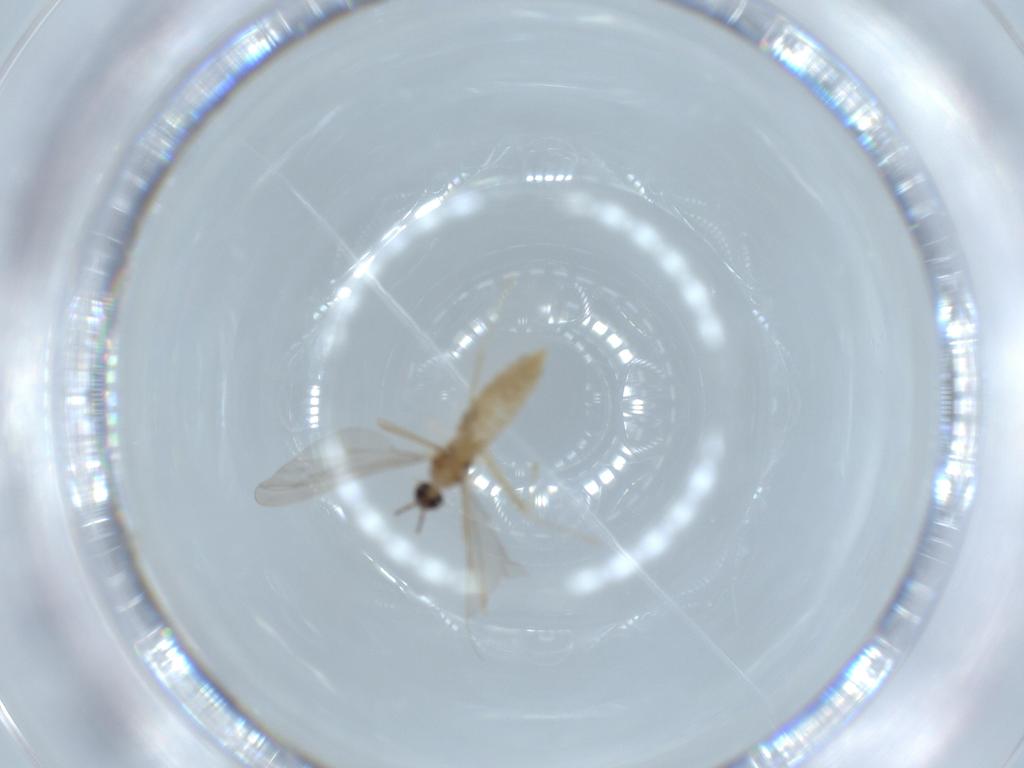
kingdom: Animalia
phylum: Arthropoda
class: Insecta
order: Diptera
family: Cecidomyiidae
